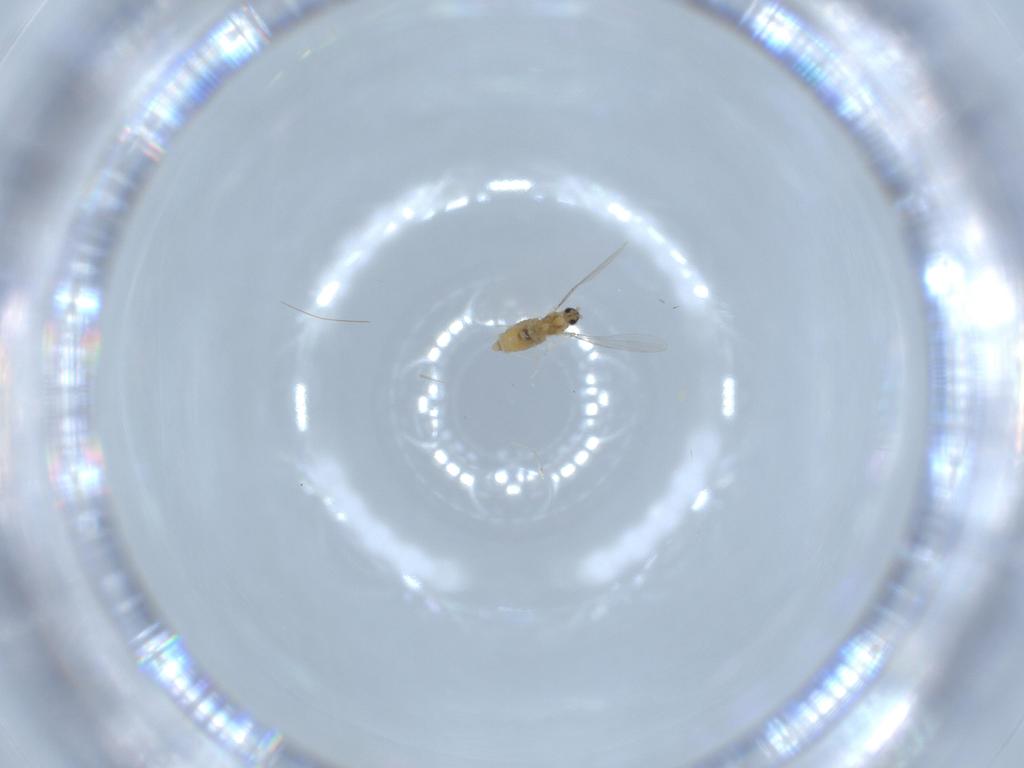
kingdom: Animalia
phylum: Arthropoda
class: Insecta
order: Diptera
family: Cecidomyiidae
